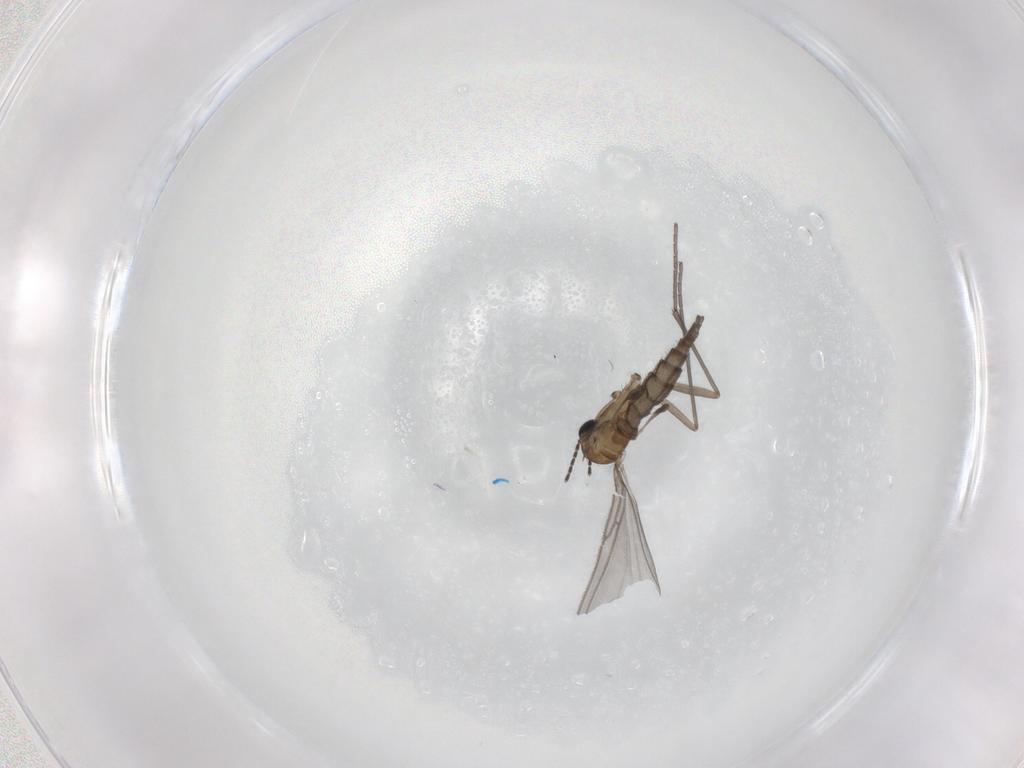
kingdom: Animalia
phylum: Arthropoda
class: Insecta
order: Diptera
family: Sciaridae
